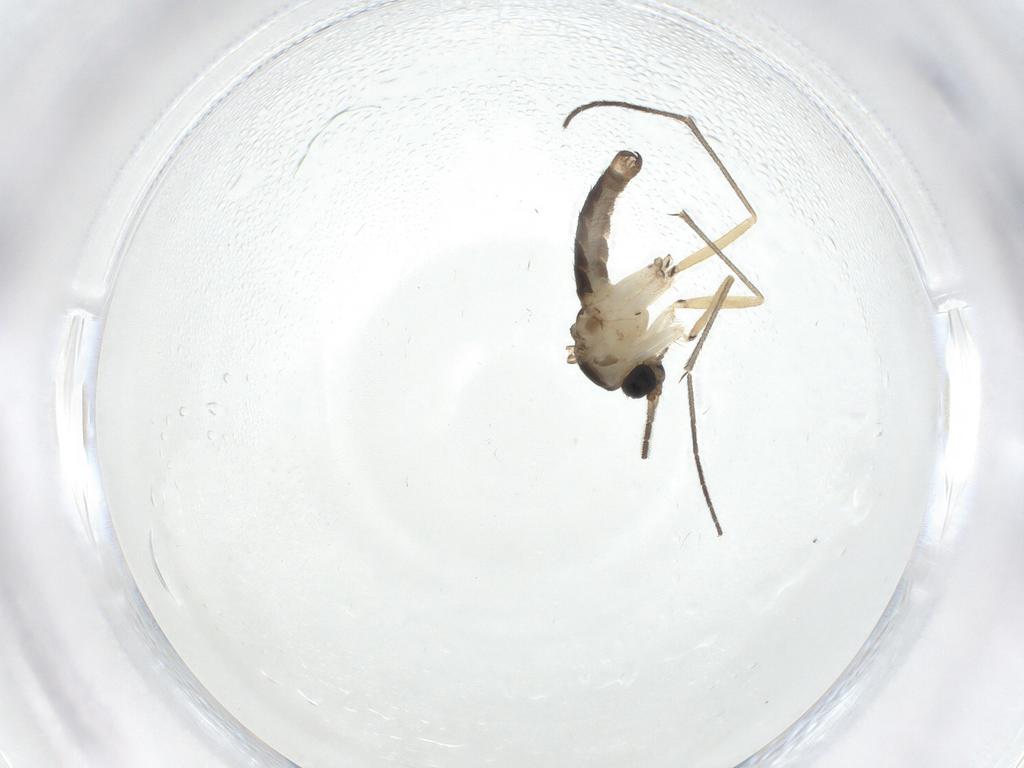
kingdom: Animalia
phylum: Arthropoda
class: Insecta
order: Diptera
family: Sciaridae
